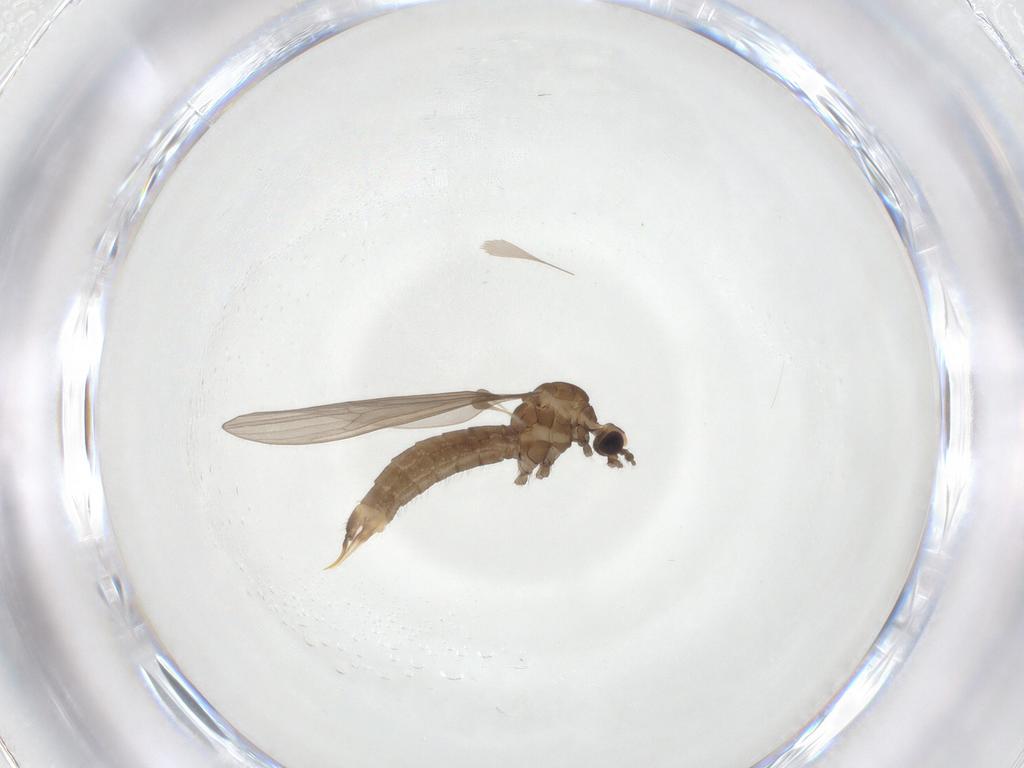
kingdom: Animalia
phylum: Arthropoda
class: Insecta
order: Diptera
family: Limoniidae
